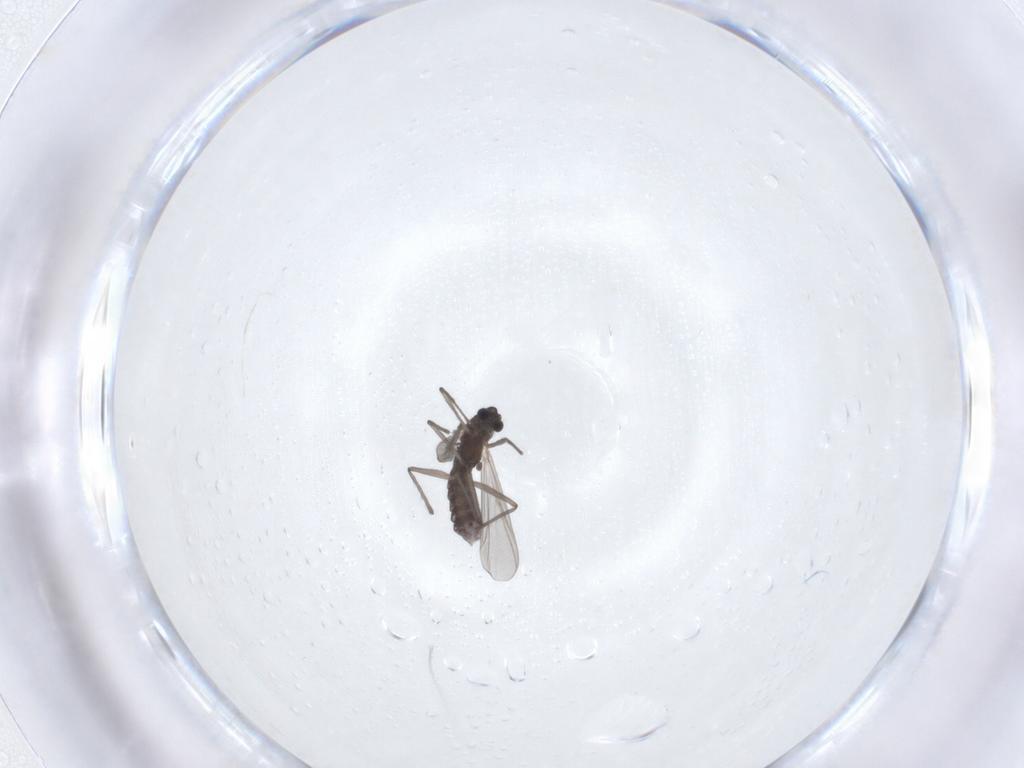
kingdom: Animalia
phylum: Arthropoda
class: Insecta
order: Diptera
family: Chironomidae
